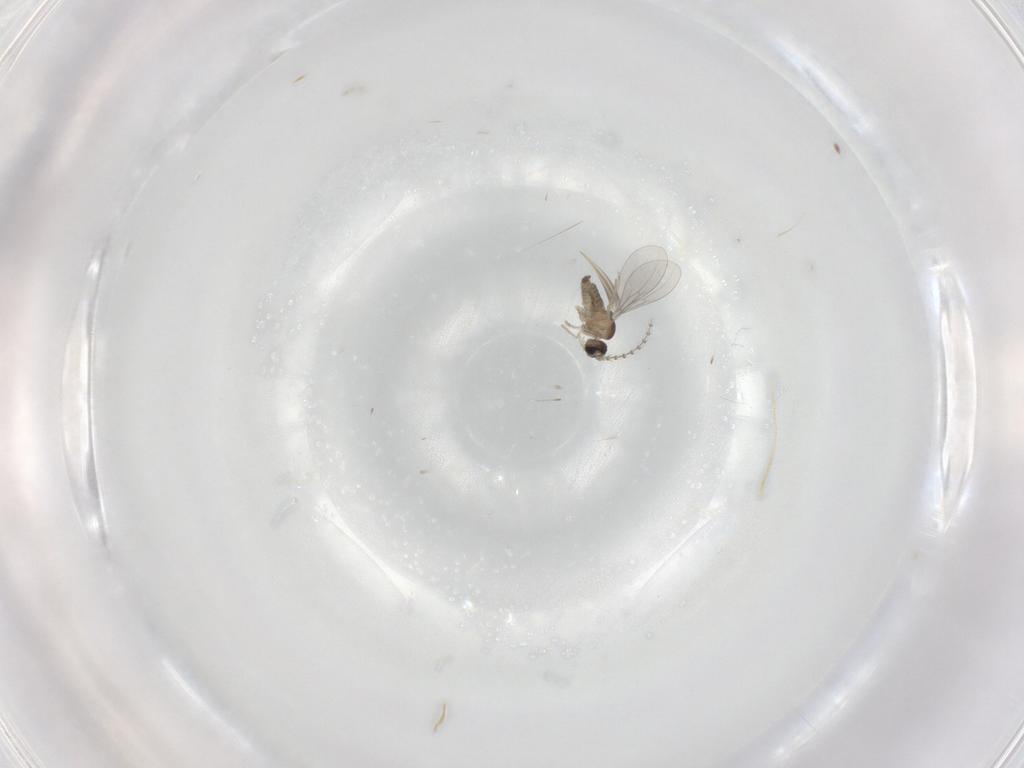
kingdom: Animalia
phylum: Arthropoda
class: Insecta
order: Diptera
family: Cecidomyiidae
